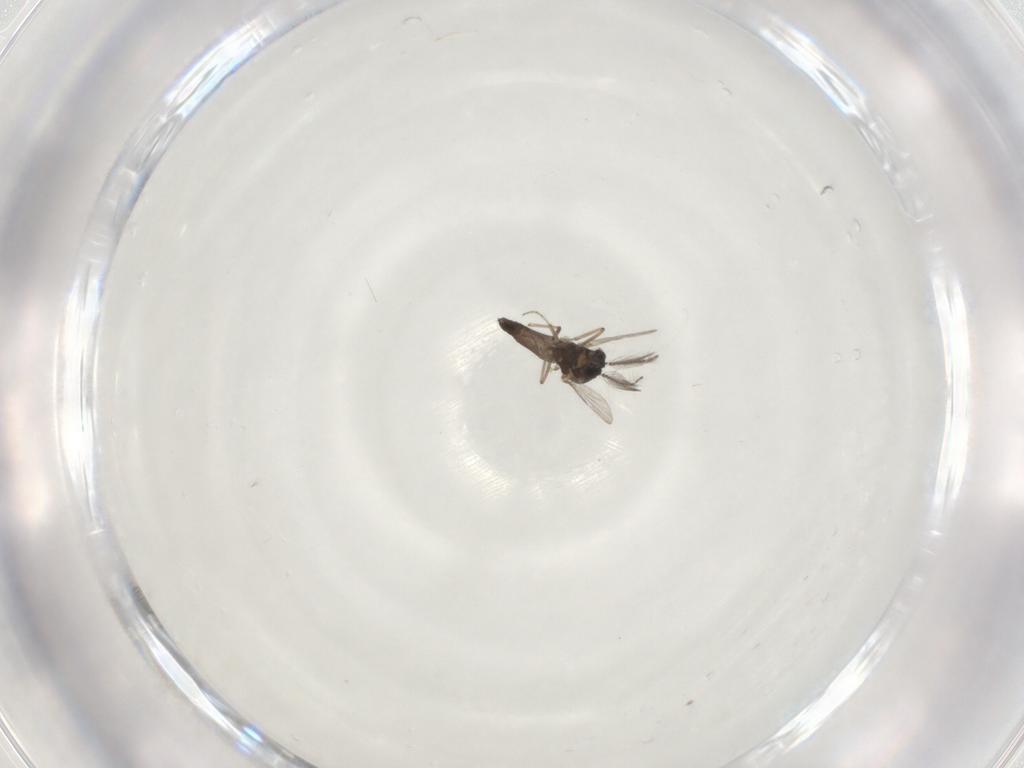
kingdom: Animalia
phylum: Arthropoda
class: Insecta
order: Diptera
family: Ceratopogonidae
